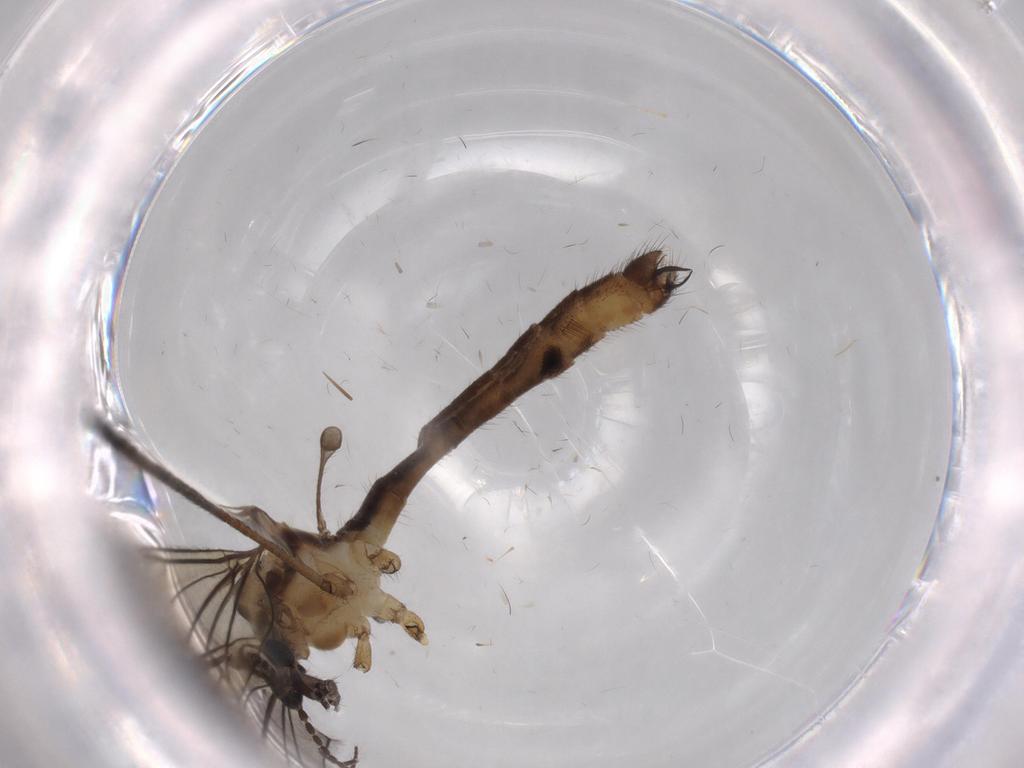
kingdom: Animalia
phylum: Arthropoda
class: Insecta
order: Diptera
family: Cecidomyiidae
